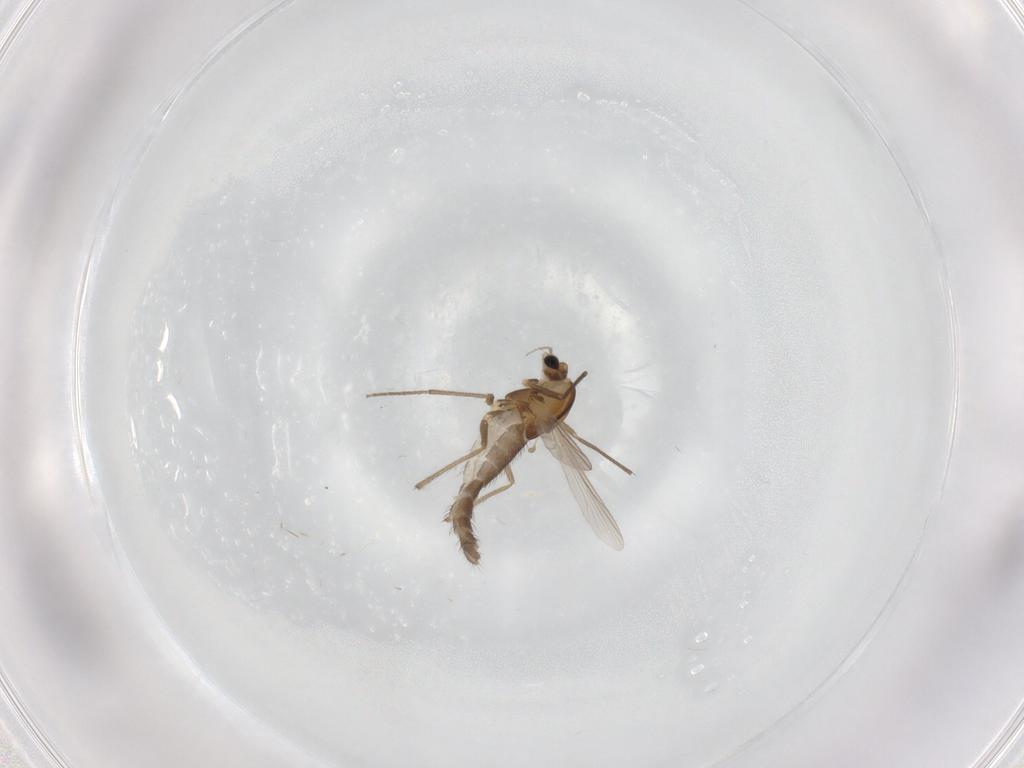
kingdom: Animalia
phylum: Arthropoda
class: Insecta
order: Diptera
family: Chironomidae
